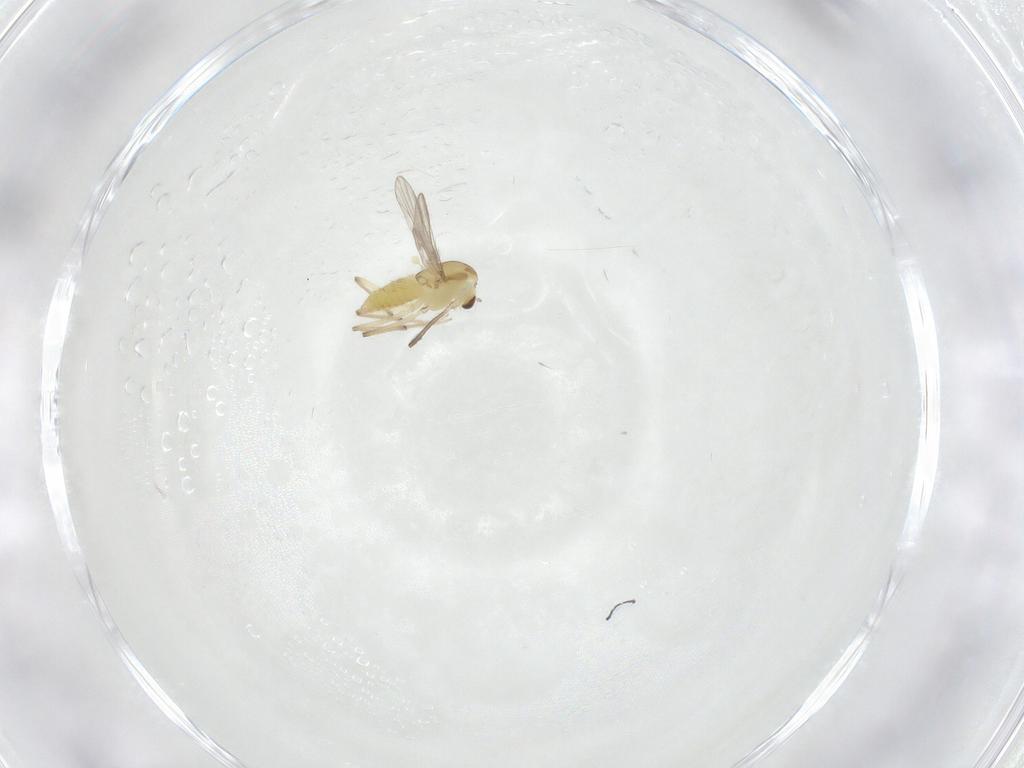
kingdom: Animalia
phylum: Arthropoda
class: Insecta
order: Diptera
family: Chironomidae
